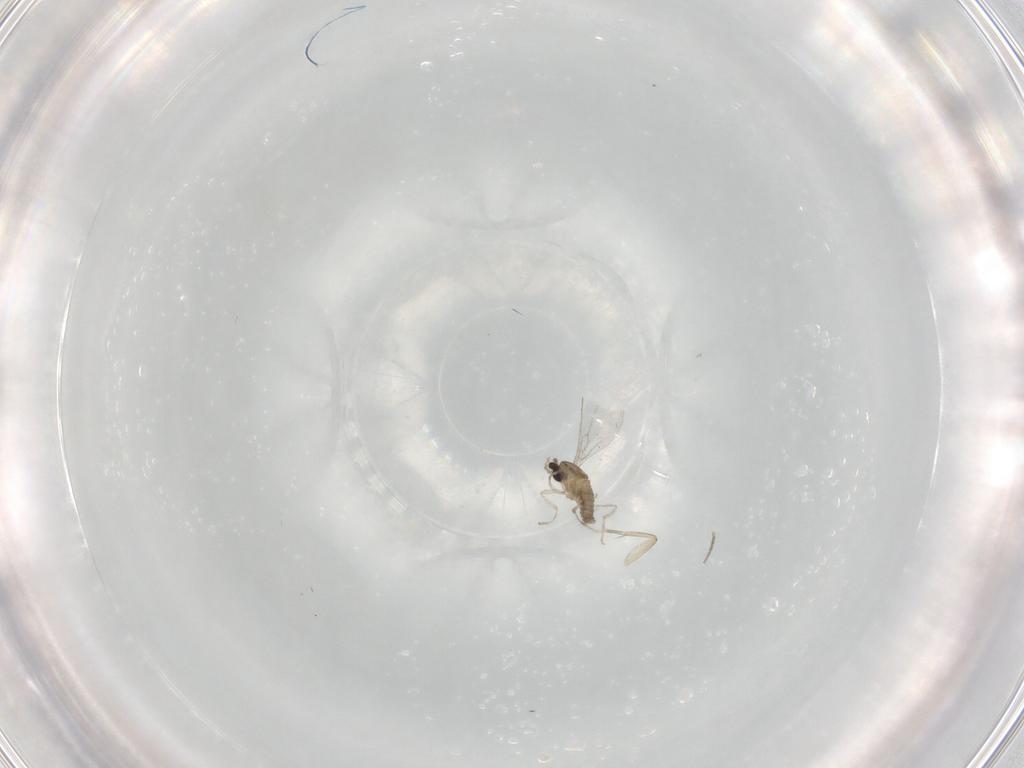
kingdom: Animalia
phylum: Arthropoda
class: Insecta
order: Diptera
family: Phoridae
